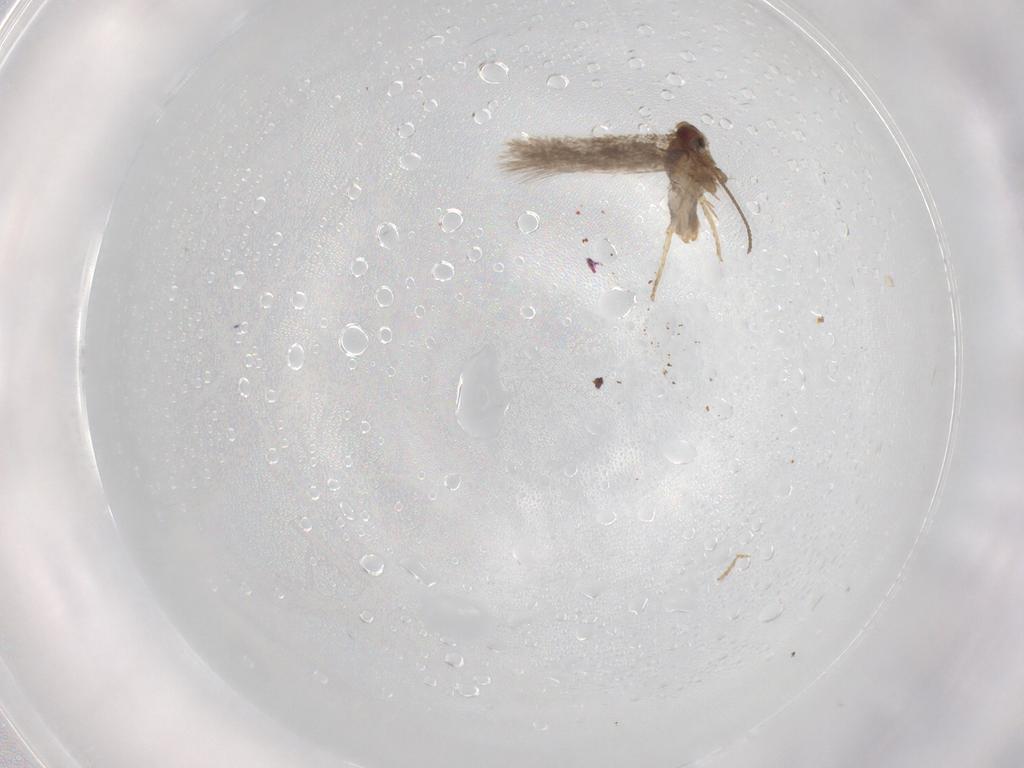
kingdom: Animalia
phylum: Arthropoda
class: Insecta
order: Lepidoptera
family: Nepticulidae
